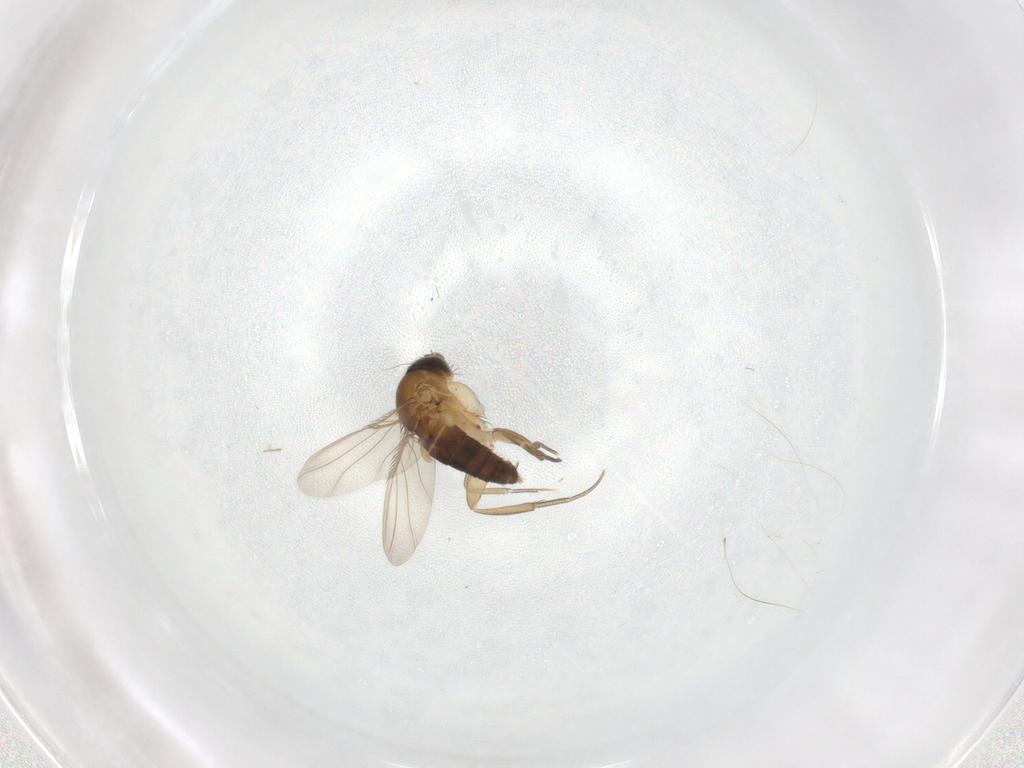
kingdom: Animalia
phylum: Arthropoda
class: Insecta
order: Diptera
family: Phoridae
